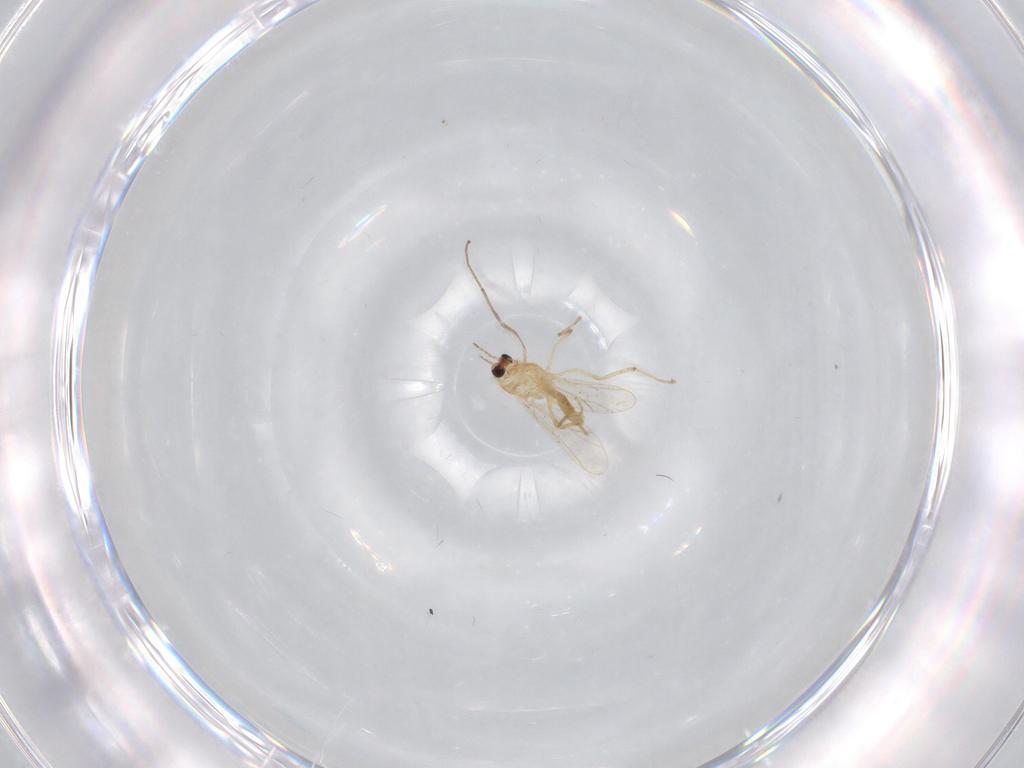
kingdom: Animalia
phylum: Arthropoda
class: Insecta
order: Diptera
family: Chironomidae
